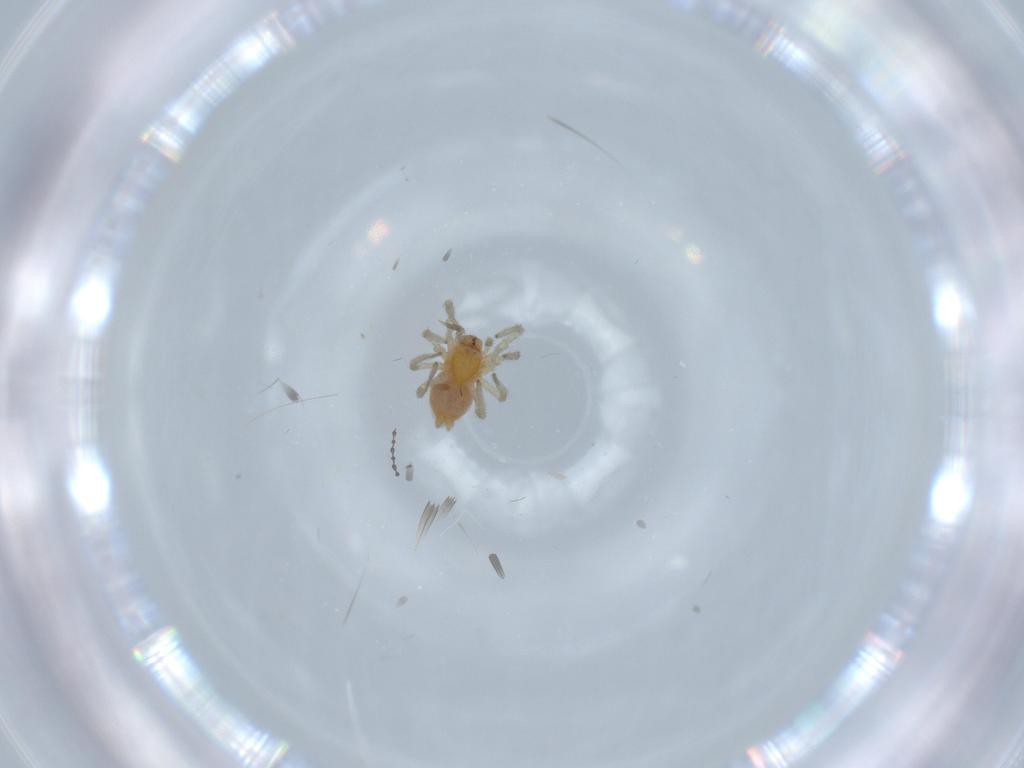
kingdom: Animalia
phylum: Arthropoda
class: Arachnida
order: Araneae
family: Dictynidae
